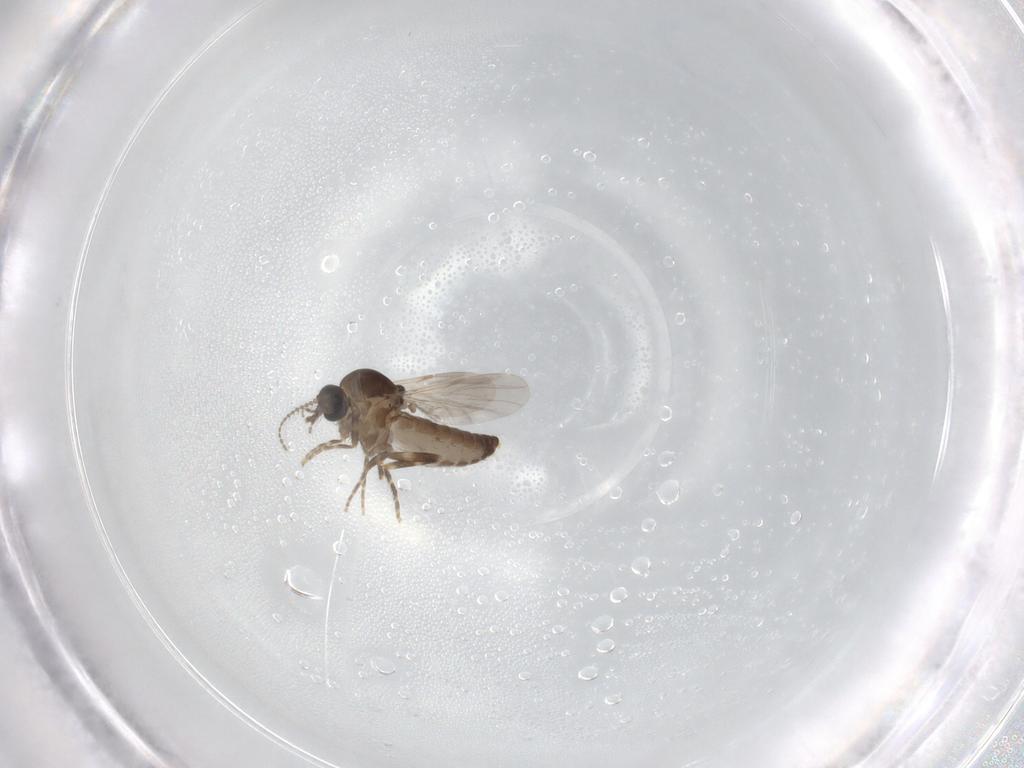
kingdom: Animalia
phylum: Arthropoda
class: Insecta
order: Diptera
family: Ceratopogonidae
